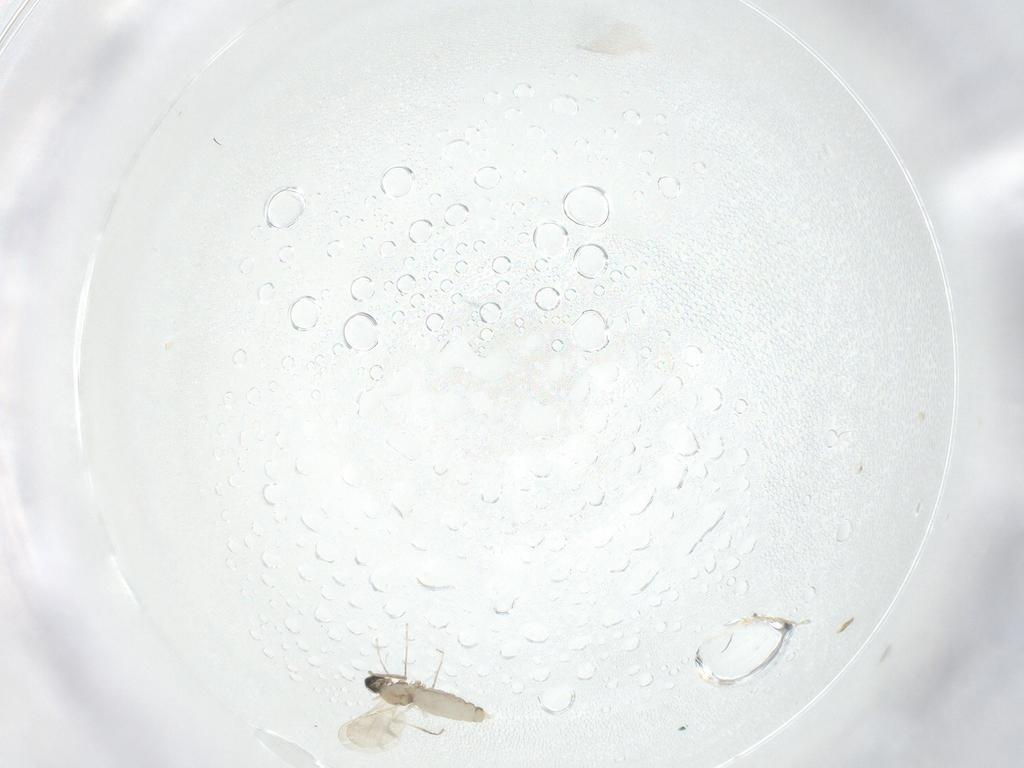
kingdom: Animalia
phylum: Arthropoda
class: Insecta
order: Diptera
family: Cecidomyiidae
